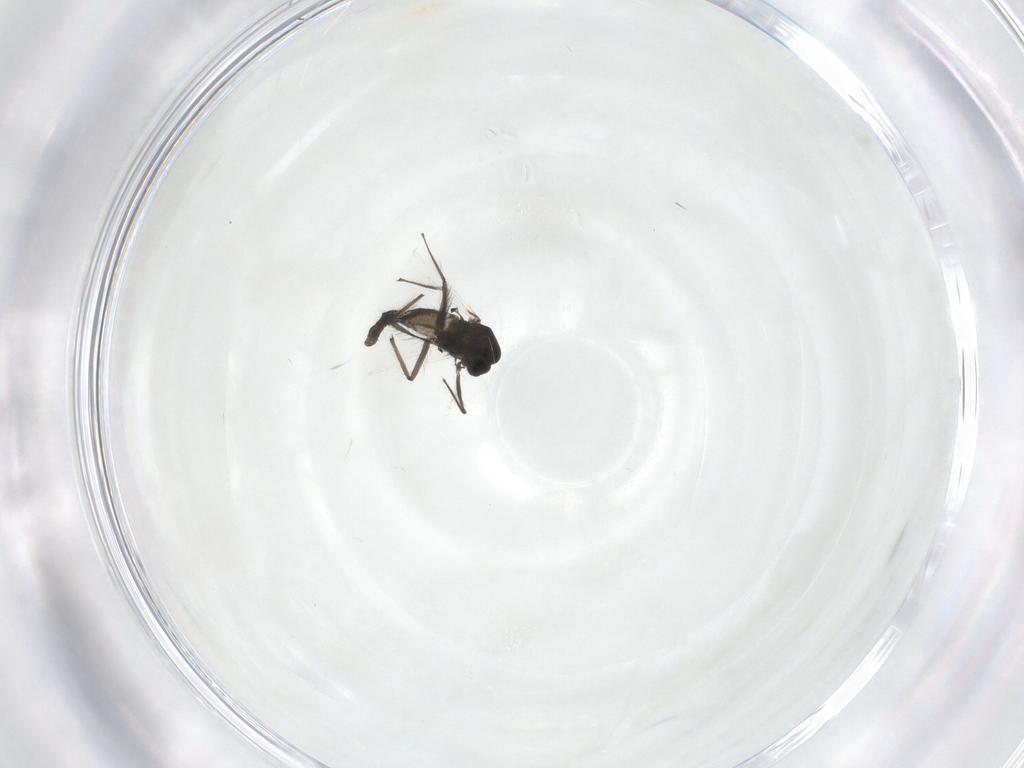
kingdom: Animalia
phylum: Arthropoda
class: Insecta
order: Diptera
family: Chironomidae
